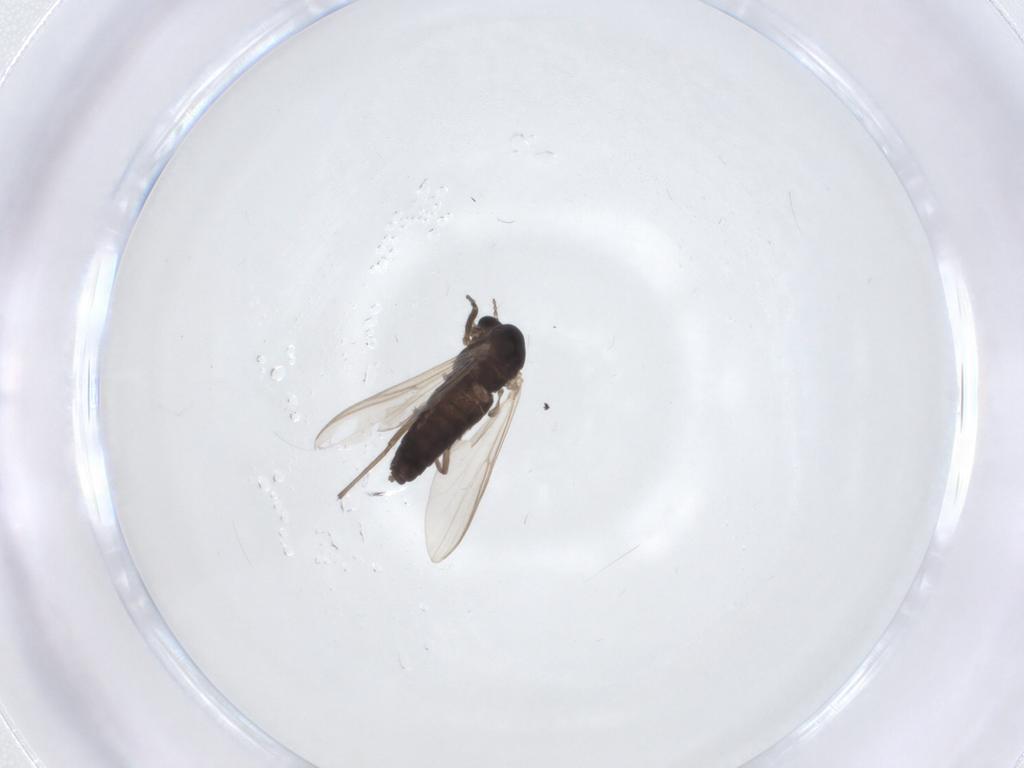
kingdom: Animalia
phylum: Arthropoda
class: Insecta
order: Diptera
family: Chironomidae
